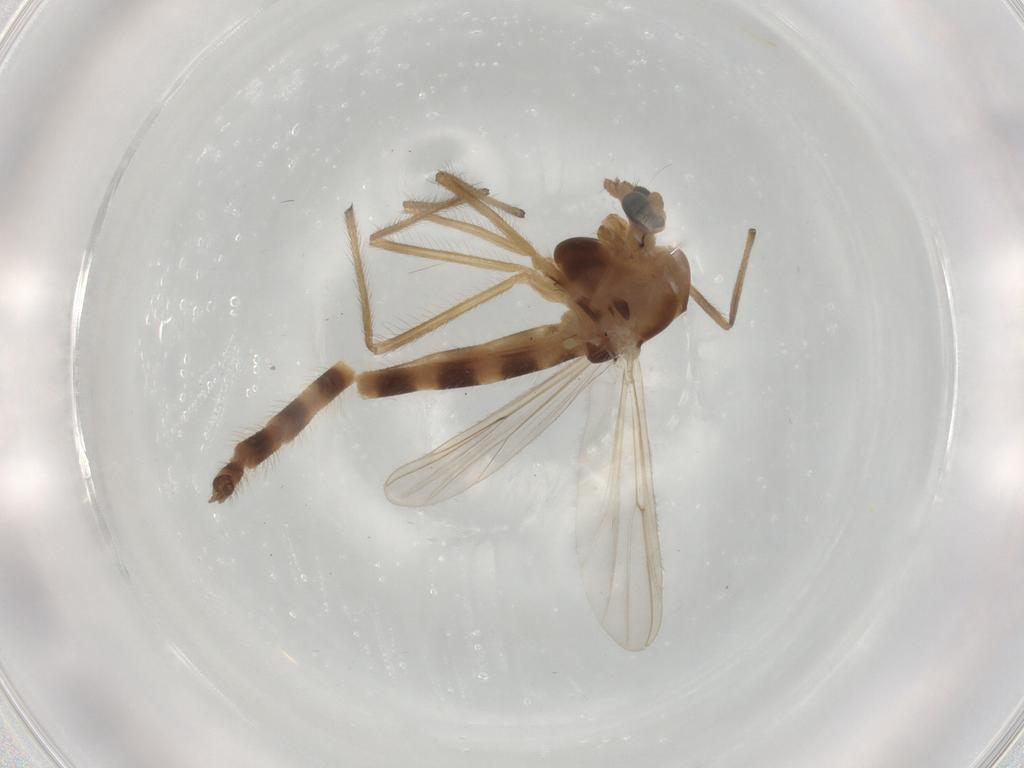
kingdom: Animalia
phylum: Arthropoda
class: Insecta
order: Diptera
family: Chironomidae
